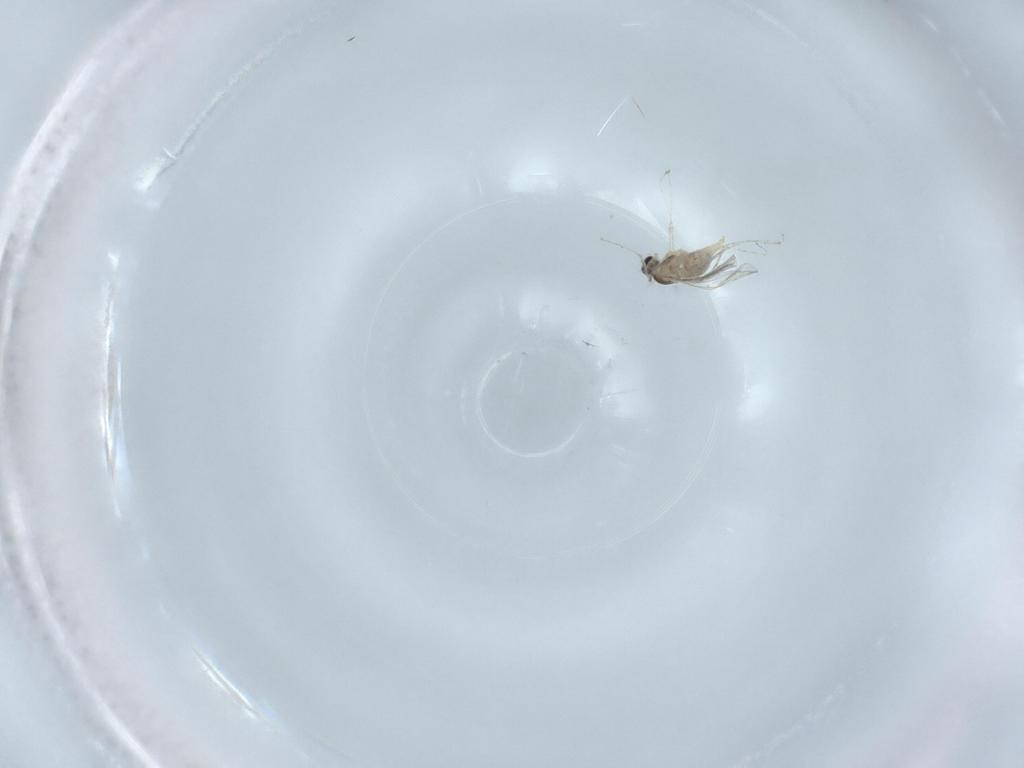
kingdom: Animalia
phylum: Arthropoda
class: Insecta
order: Diptera
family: Cecidomyiidae
